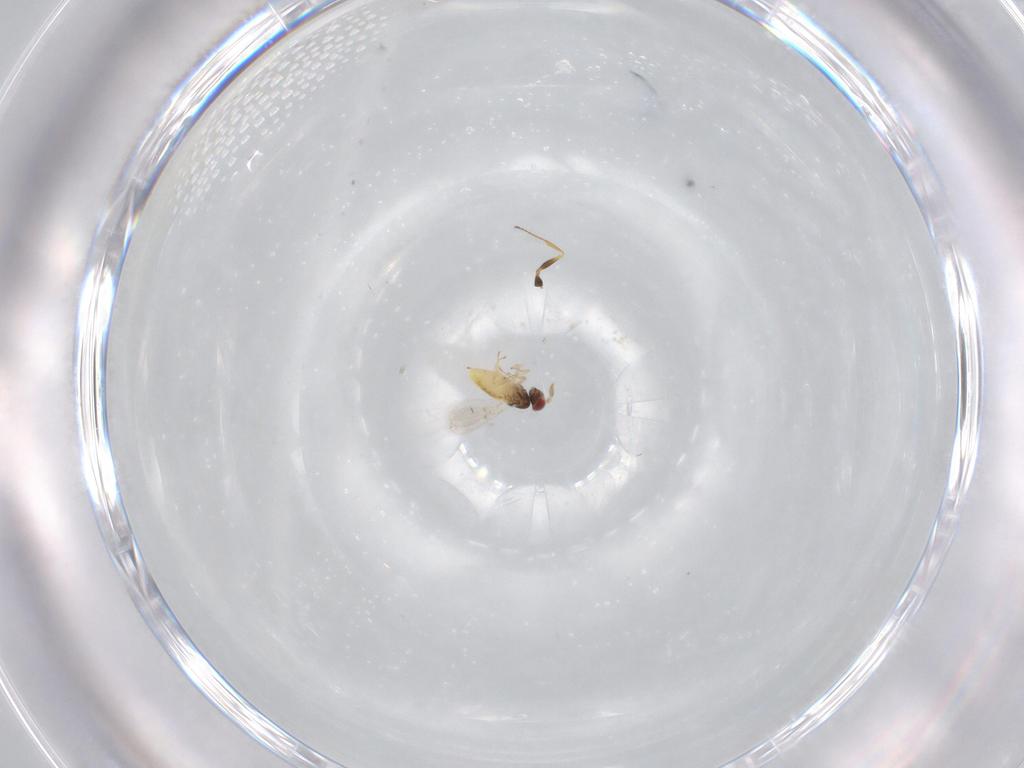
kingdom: Animalia
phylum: Arthropoda
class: Insecta
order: Hymenoptera
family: Scelionidae
